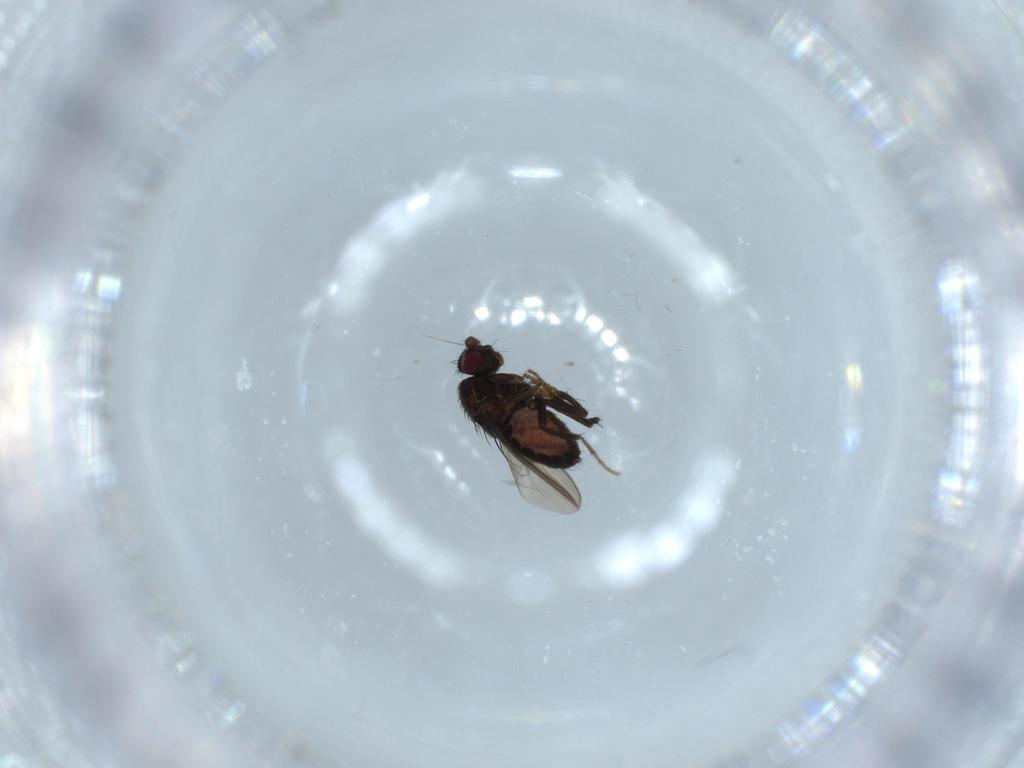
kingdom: Animalia
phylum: Arthropoda
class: Insecta
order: Diptera
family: Sphaeroceridae
